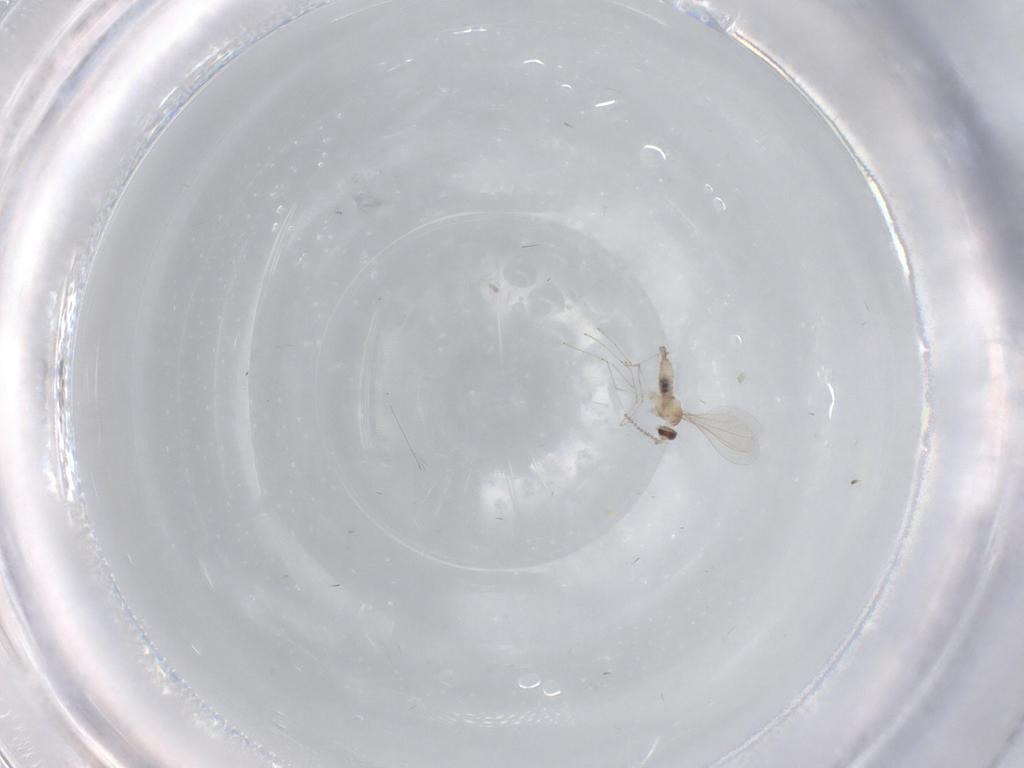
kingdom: Animalia
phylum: Arthropoda
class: Insecta
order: Diptera
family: Cecidomyiidae
